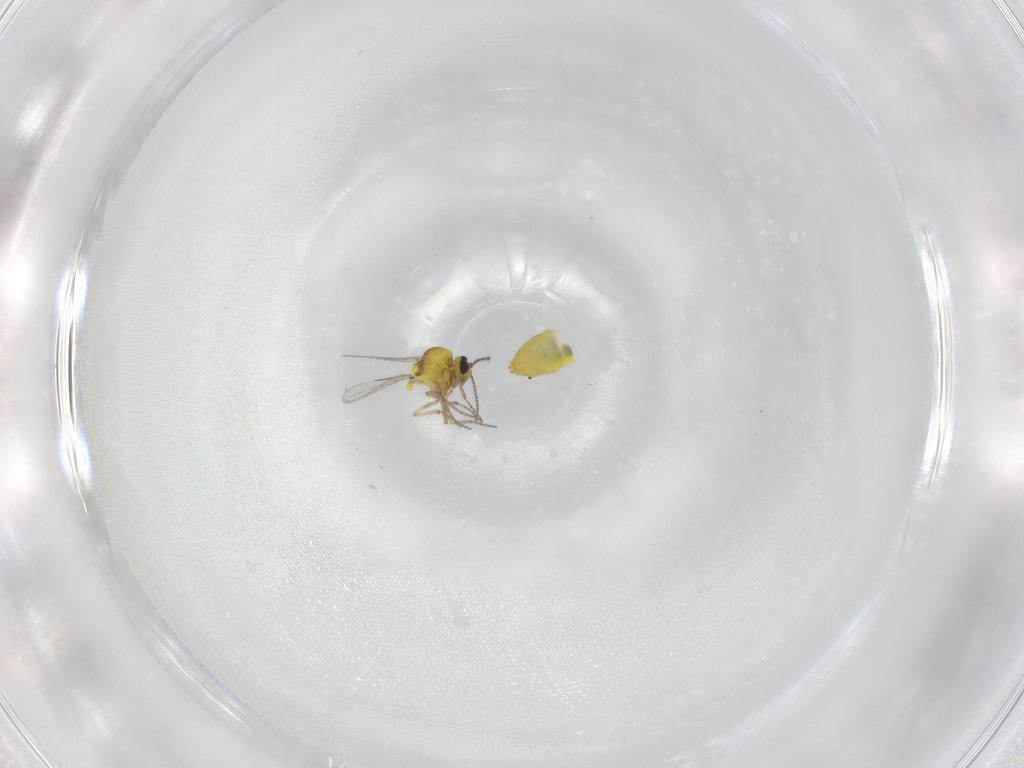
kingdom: Animalia
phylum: Arthropoda
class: Insecta
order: Diptera
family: Ceratopogonidae
